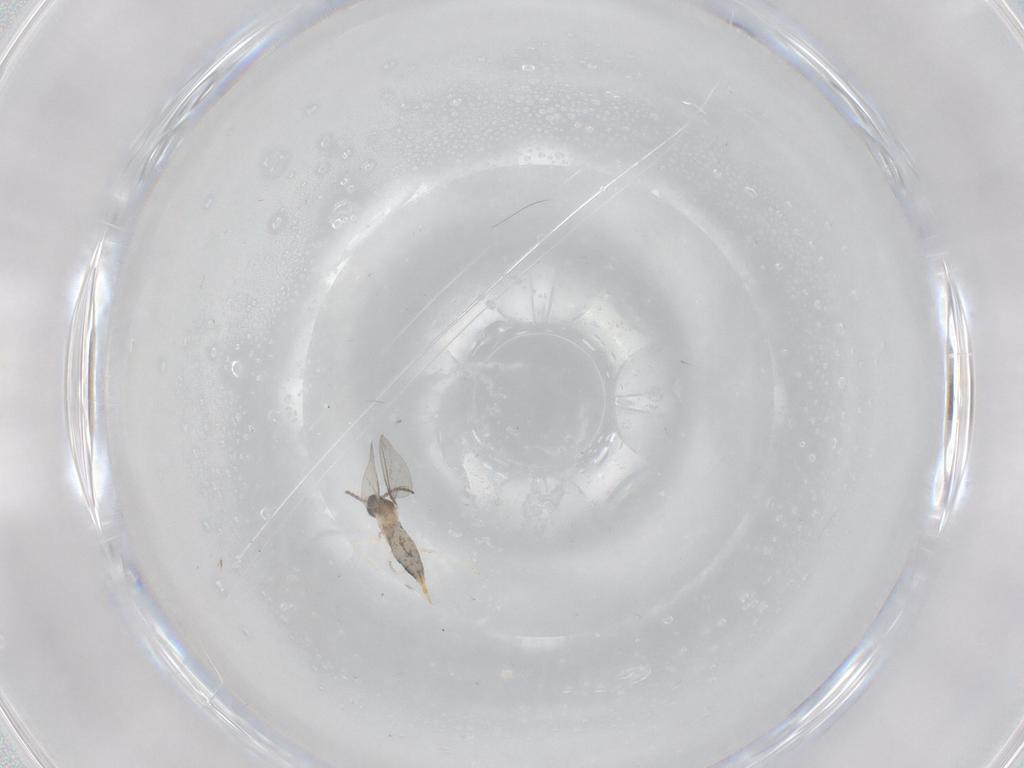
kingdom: Animalia
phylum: Arthropoda
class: Insecta
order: Diptera
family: Cecidomyiidae
